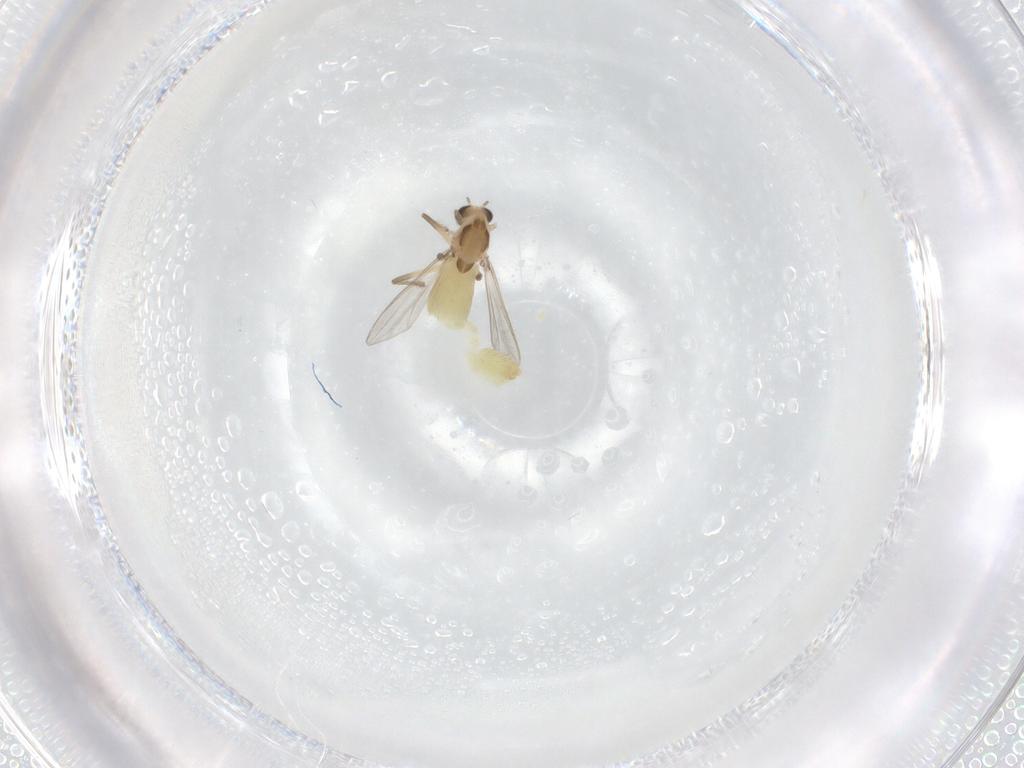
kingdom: Animalia
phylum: Arthropoda
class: Insecta
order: Diptera
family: Chironomidae
